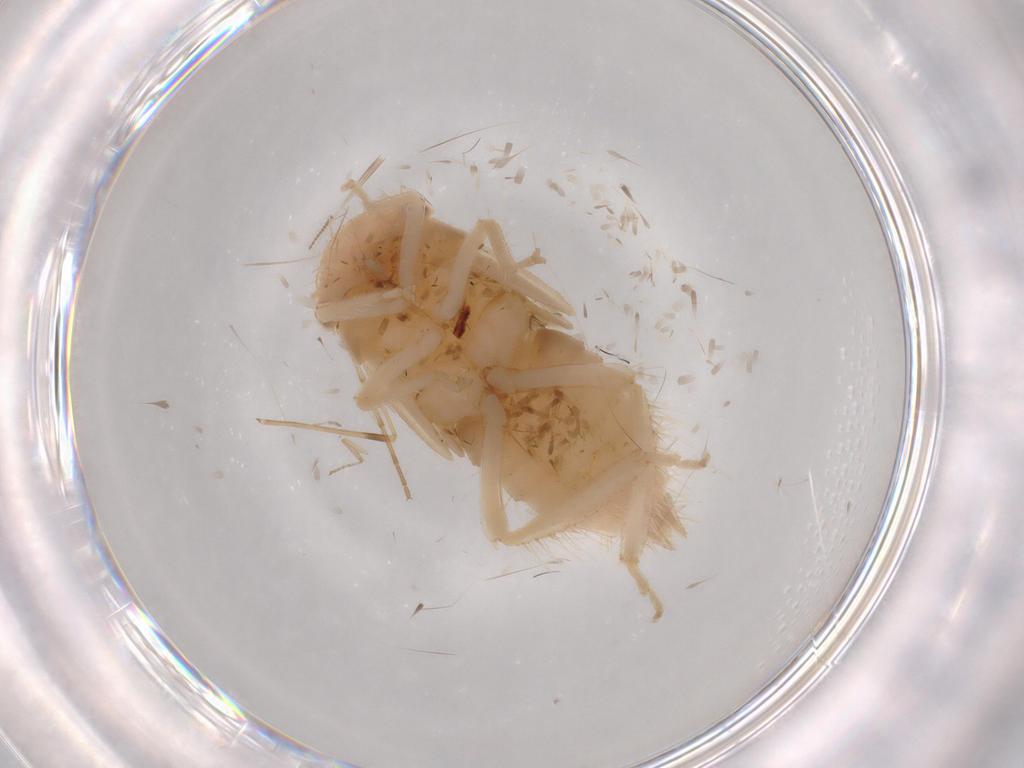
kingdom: Animalia
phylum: Arthropoda
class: Insecta
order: Hemiptera
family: Cicadellidae
